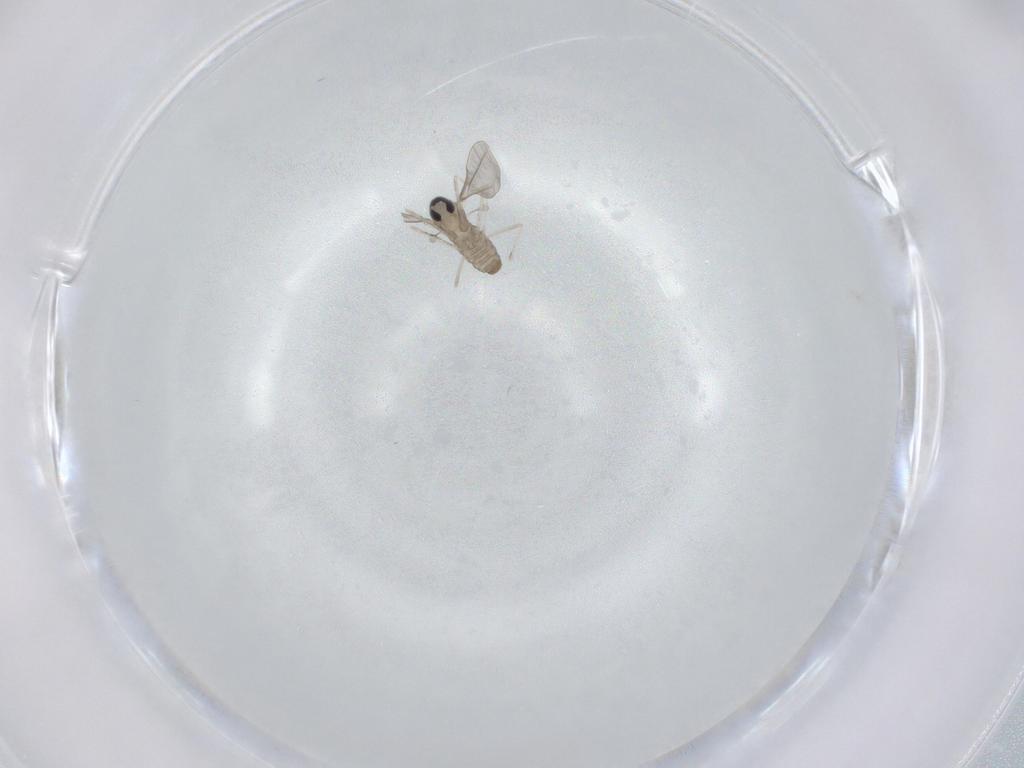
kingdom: Animalia
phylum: Arthropoda
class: Insecta
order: Diptera
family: Cecidomyiidae
